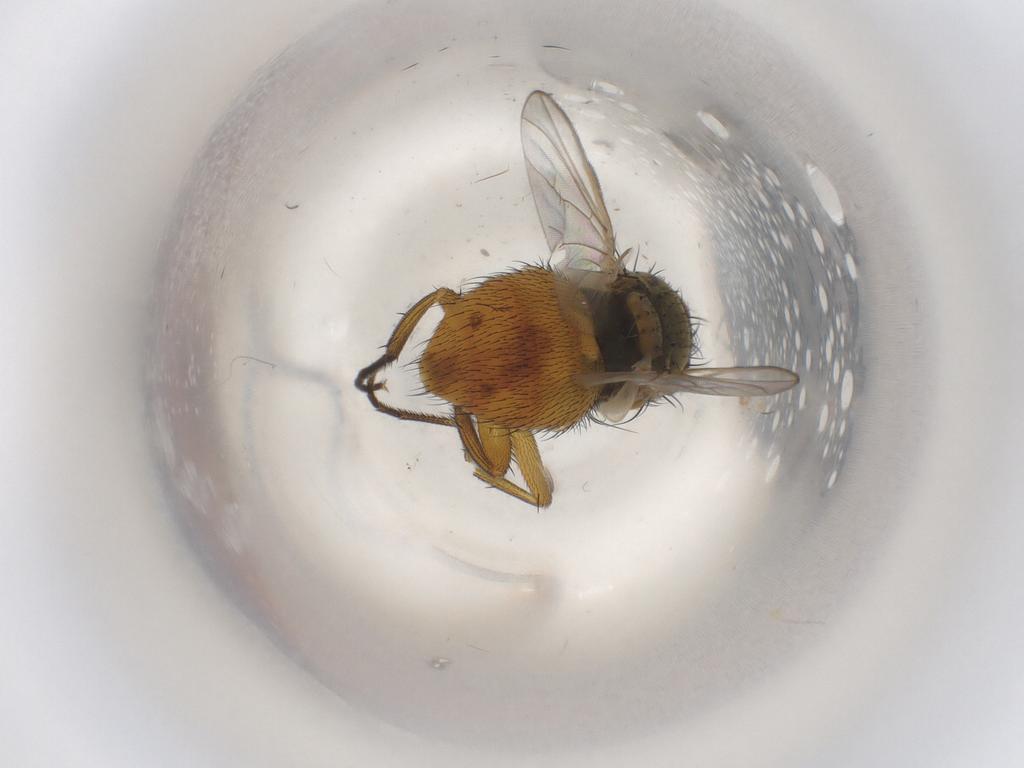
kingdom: Animalia
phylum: Arthropoda
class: Insecta
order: Diptera
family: Muscidae
